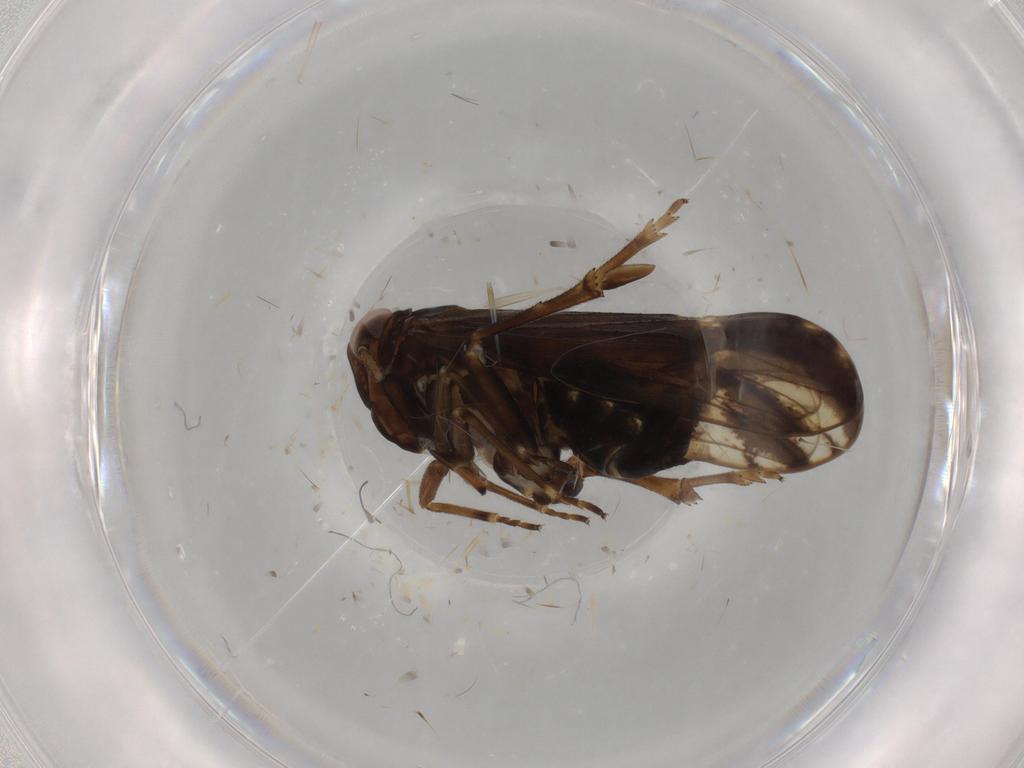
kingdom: Animalia
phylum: Arthropoda
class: Insecta
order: Hemiptera
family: Delphacidae
